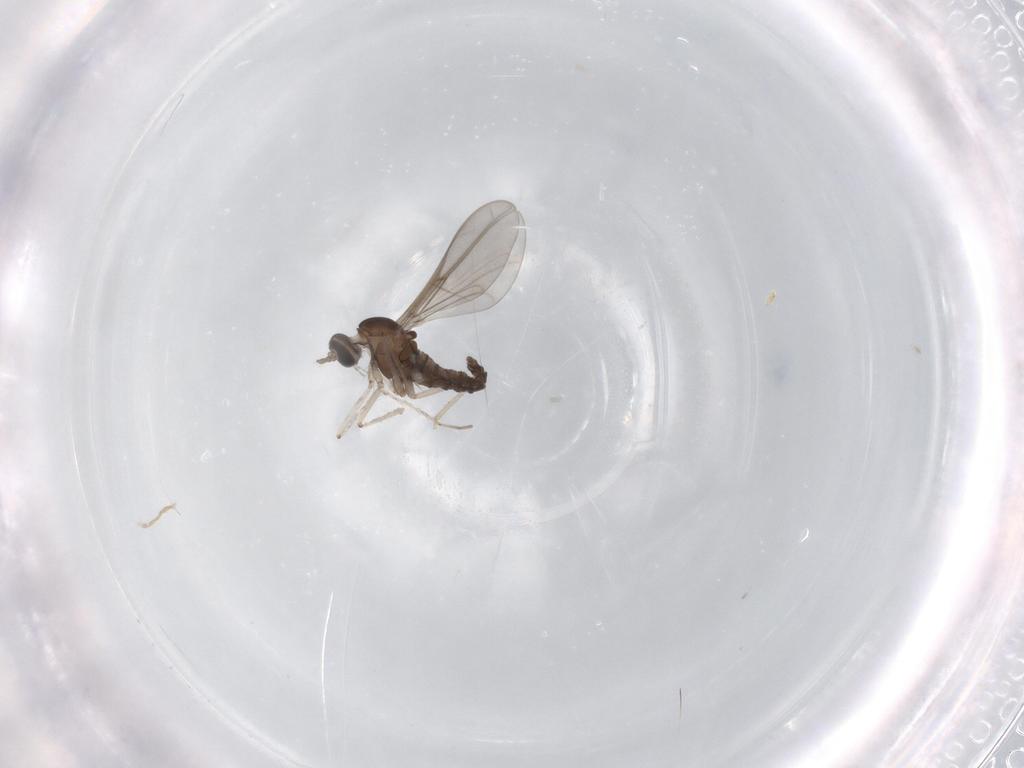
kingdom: Animalia
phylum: Arthropoda
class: Insecta
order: Diptera
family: Cecidomyiidae
